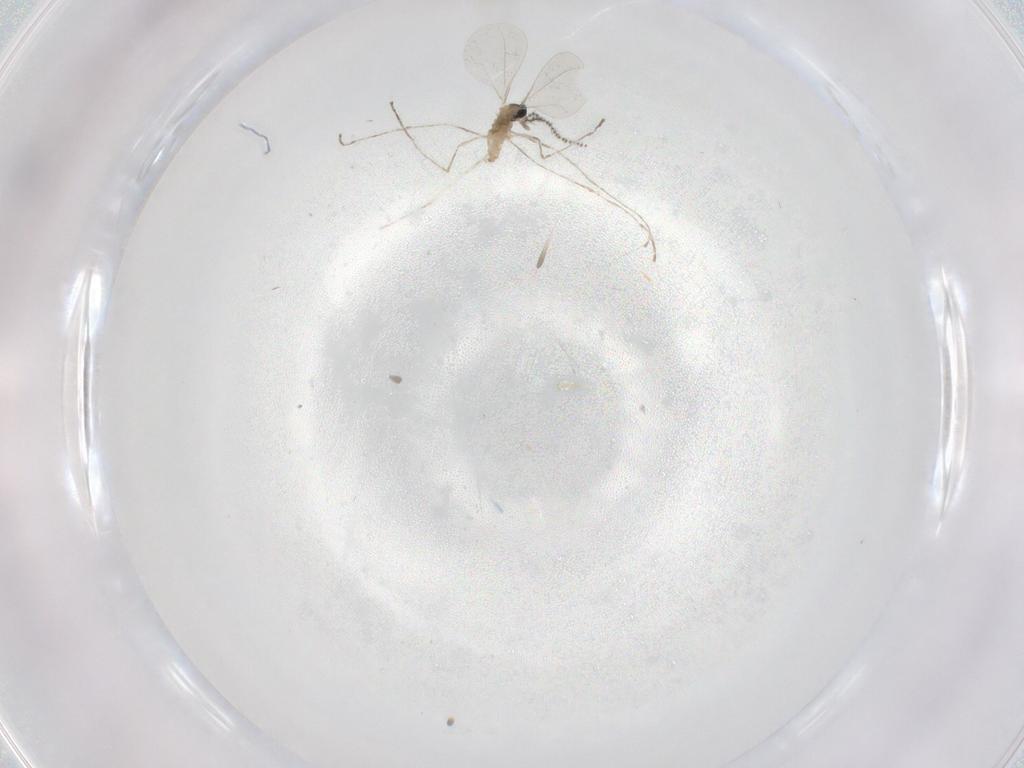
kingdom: Animalia
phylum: Arthropoda
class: Insecta
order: Diptera
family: Cecidomyiidae
